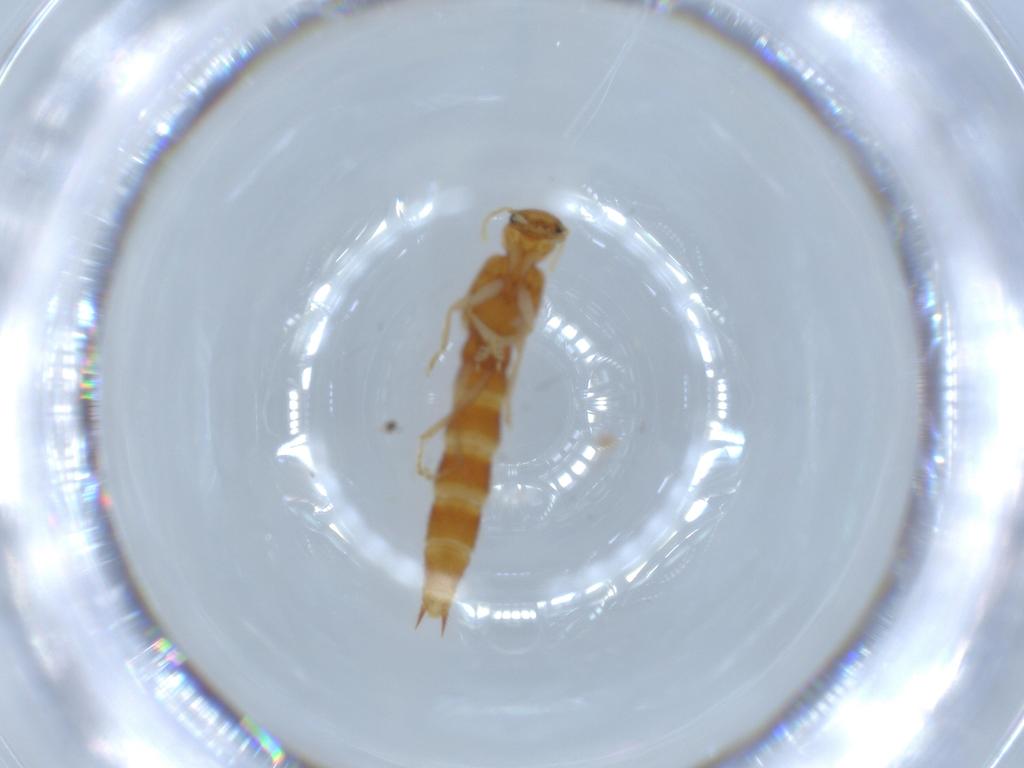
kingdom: Animalia
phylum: Arthropoda
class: Insecta
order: Coleoptera
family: Staphylinidae
